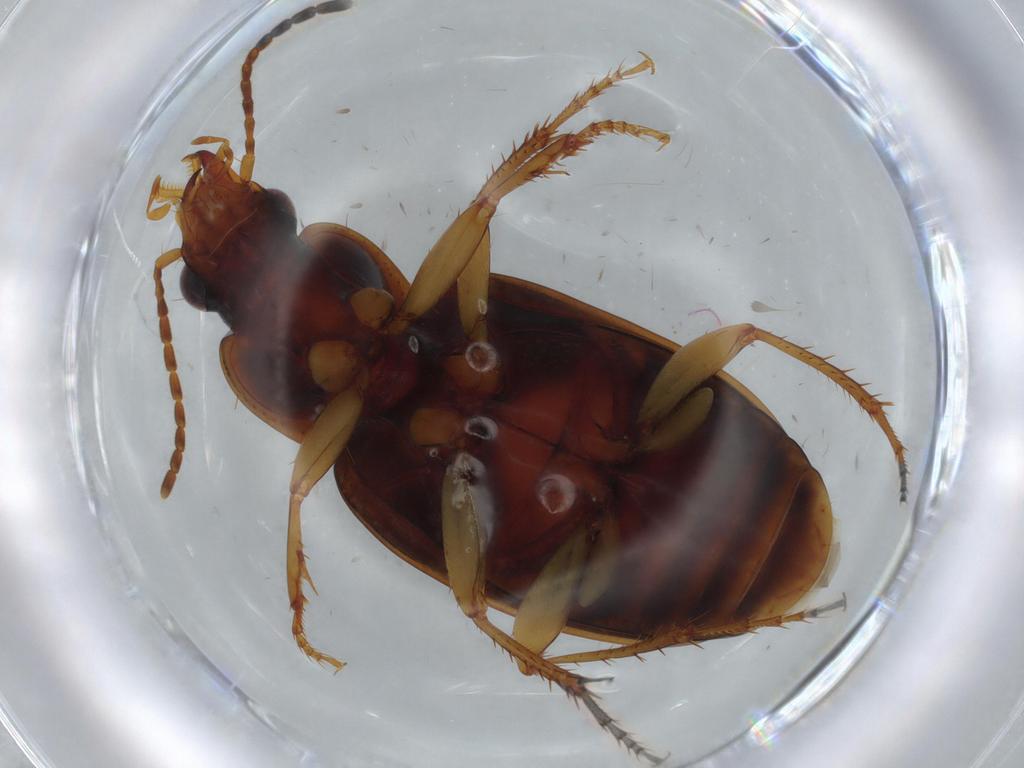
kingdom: Animalia
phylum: Arthropoda
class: Insecta
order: Coleoptera
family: Carabidae
